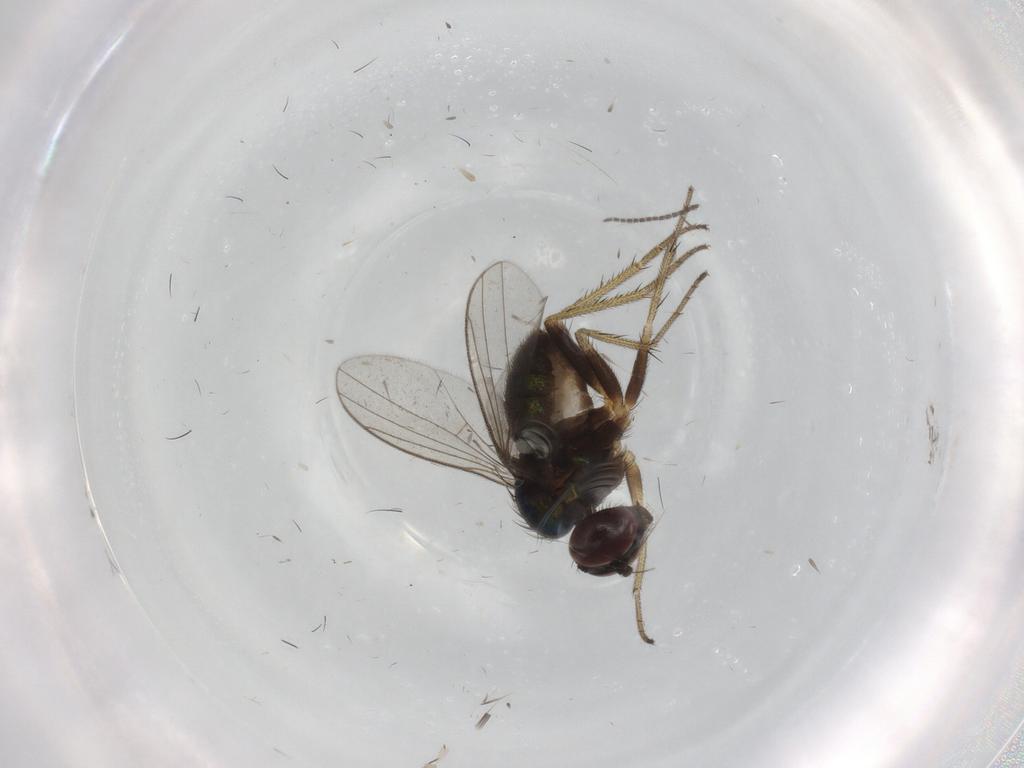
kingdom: Animalia
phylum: Arthropoda
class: Insecta
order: Diptera
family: Sciaridae
